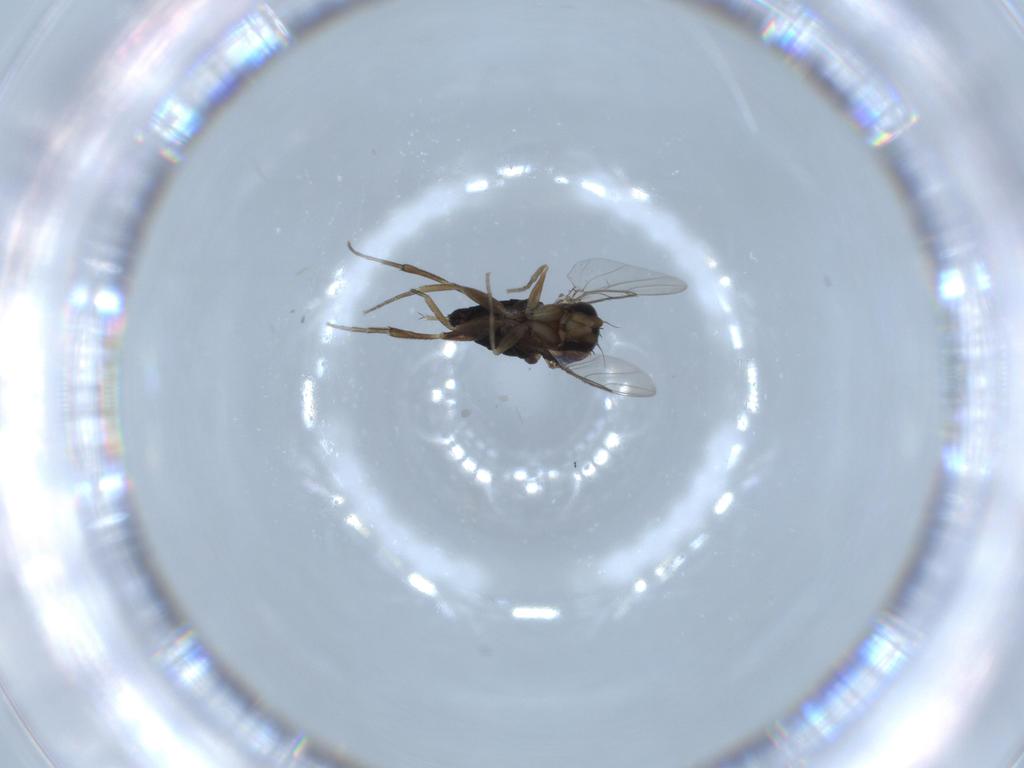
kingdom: Animalia
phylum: Arthropoda
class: Insecta
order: Diptera
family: Phoridae
